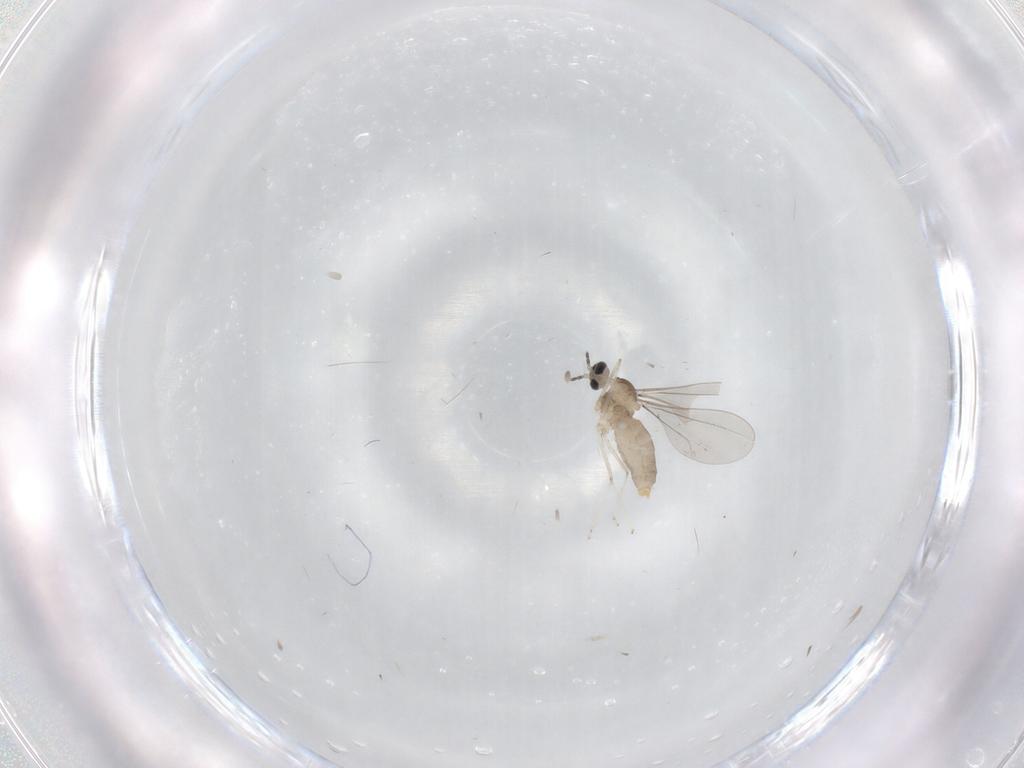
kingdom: Animalia
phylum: Arthropoda
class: Insecta
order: Diptera
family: Cecidomyiidae
